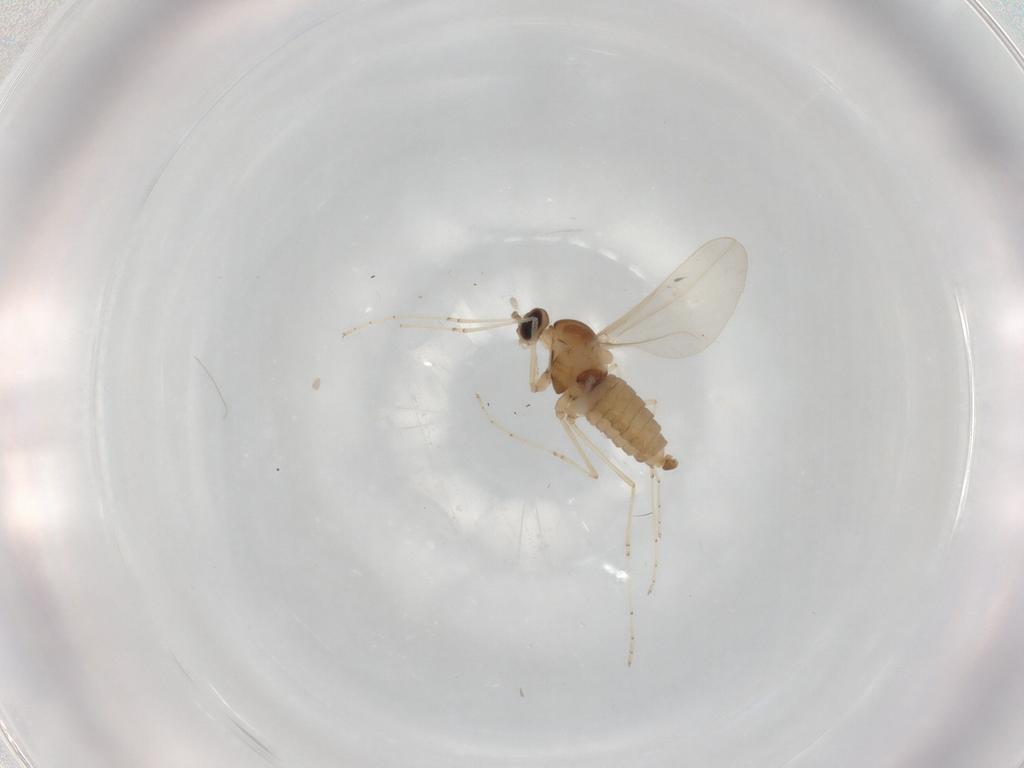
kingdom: Animalia
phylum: Arthropoda
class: Insecta
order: Diptera
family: Cecidomyiidae
